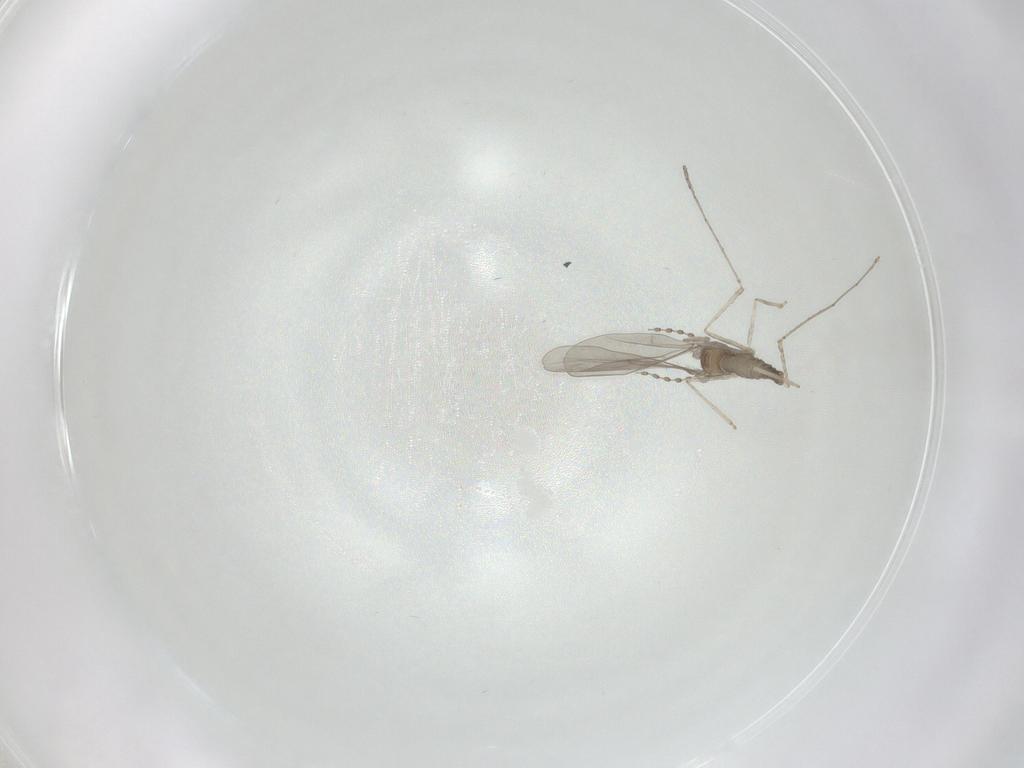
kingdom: Animalia
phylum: Arthropoda
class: Insecta
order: Diptera
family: Cecidomyiidae
